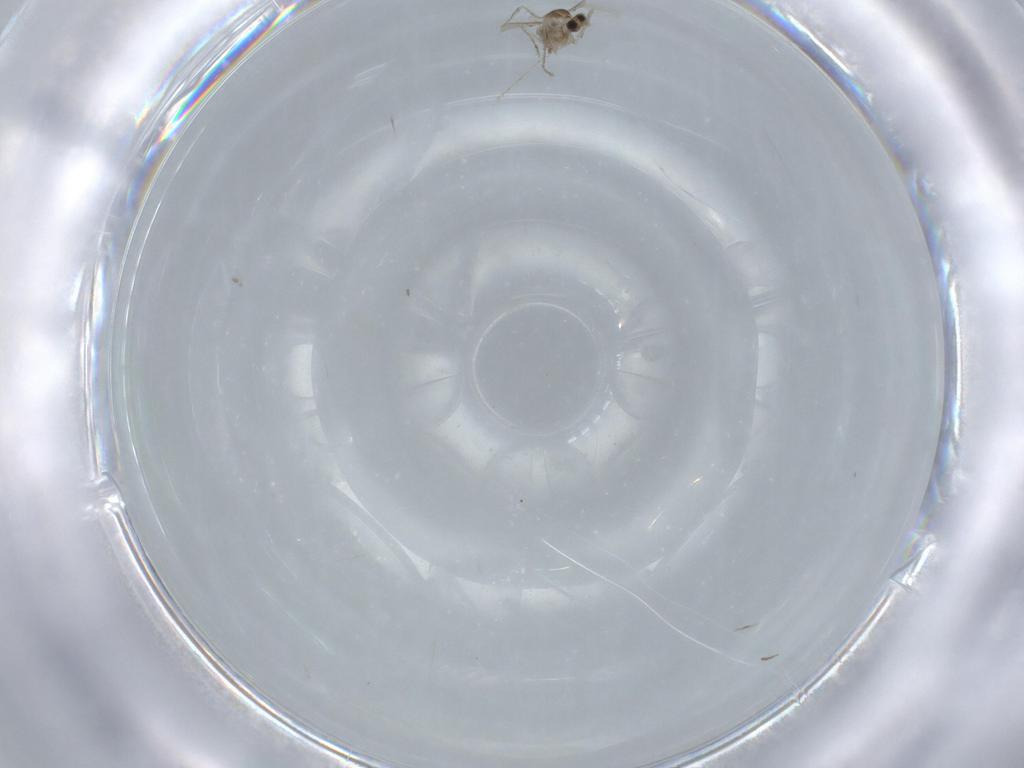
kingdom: Animalia
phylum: Arthropoda
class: Insecta
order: Diptera
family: Cecidomyiidae
